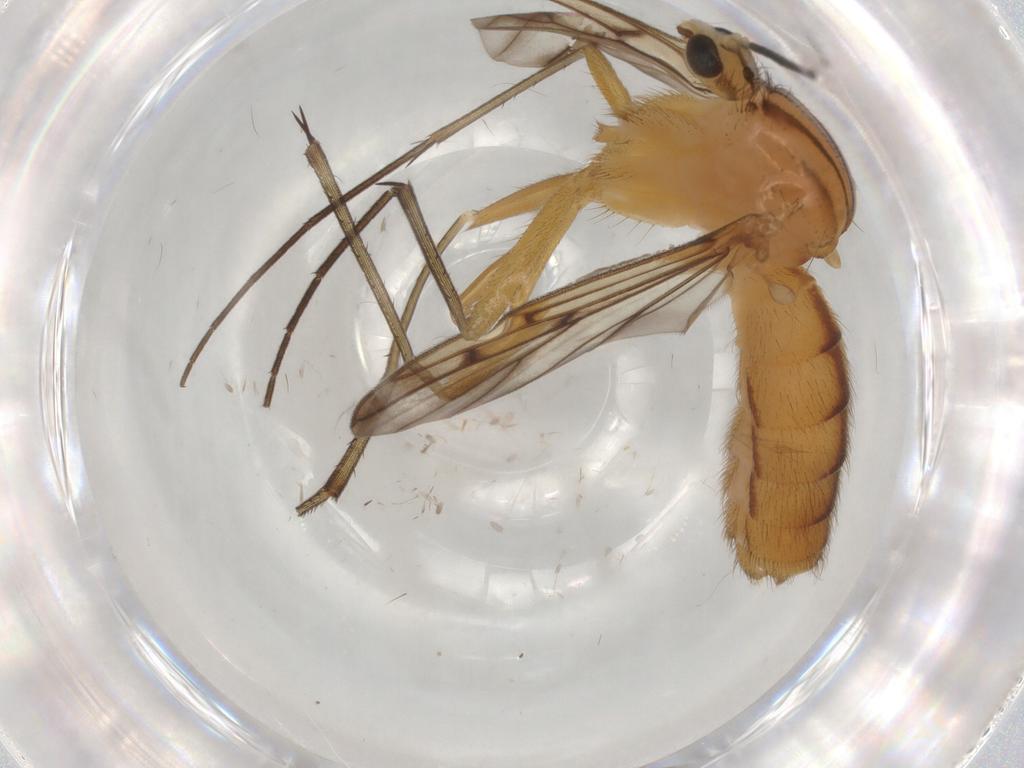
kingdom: Animalia
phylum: Arthropoda
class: Insecta
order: Diptera
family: Mycetophilidae
